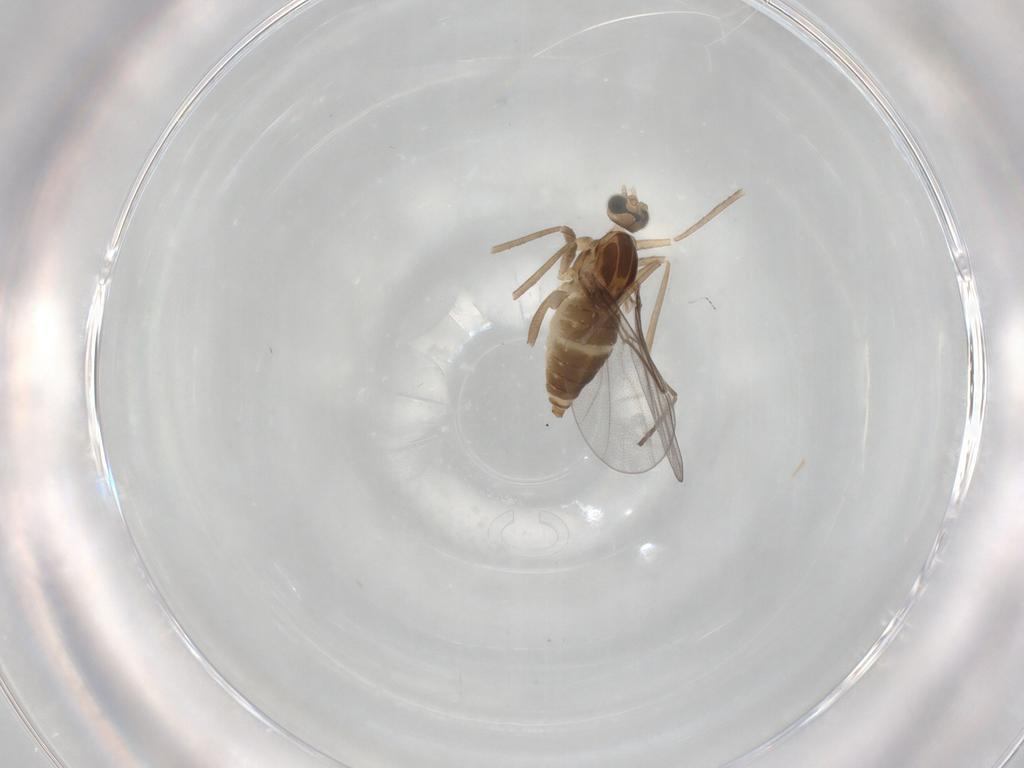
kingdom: Animalia
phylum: Arthropoda
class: Insecta
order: Diptera
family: Cecidomyiidae
